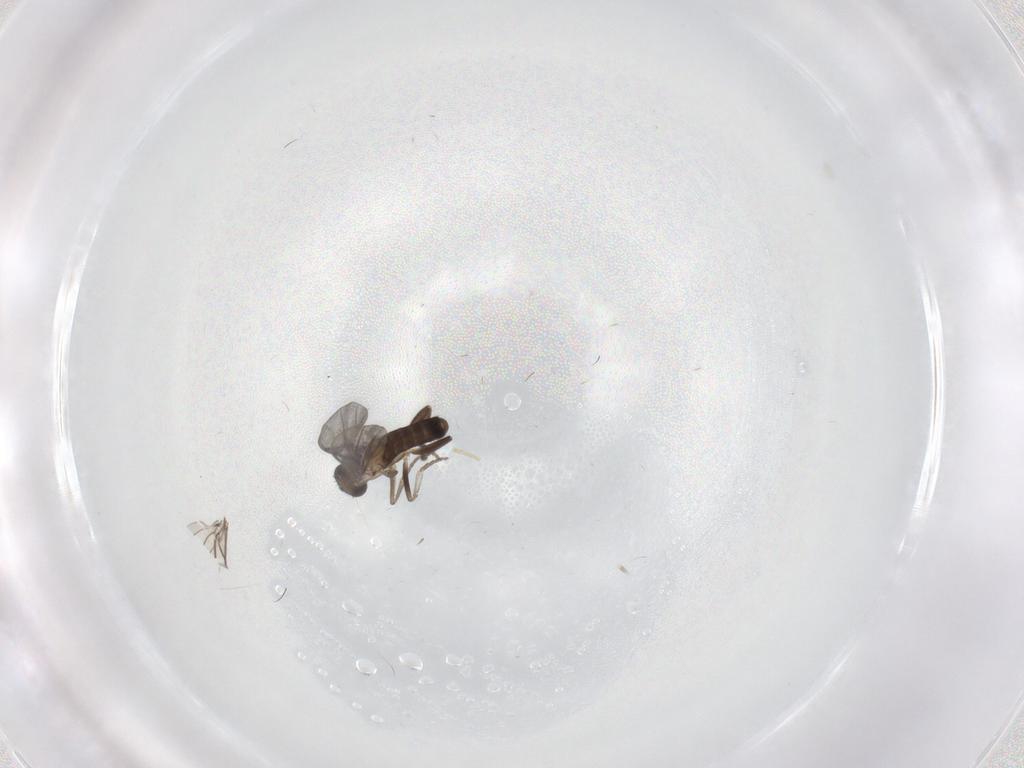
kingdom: Animalia
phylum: Arthropoda
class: Insecta
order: Diptera
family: Phoridae
